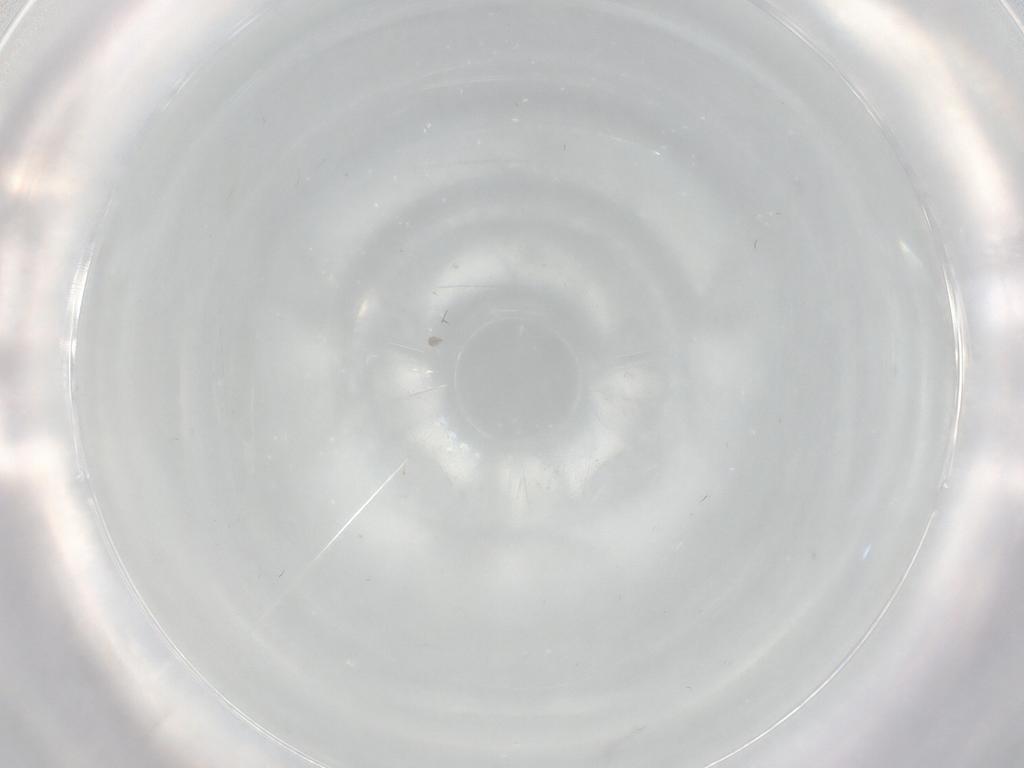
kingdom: Animalia
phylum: Arthropoda
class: Insecta
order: Diptera
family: Cecidomyiidae
